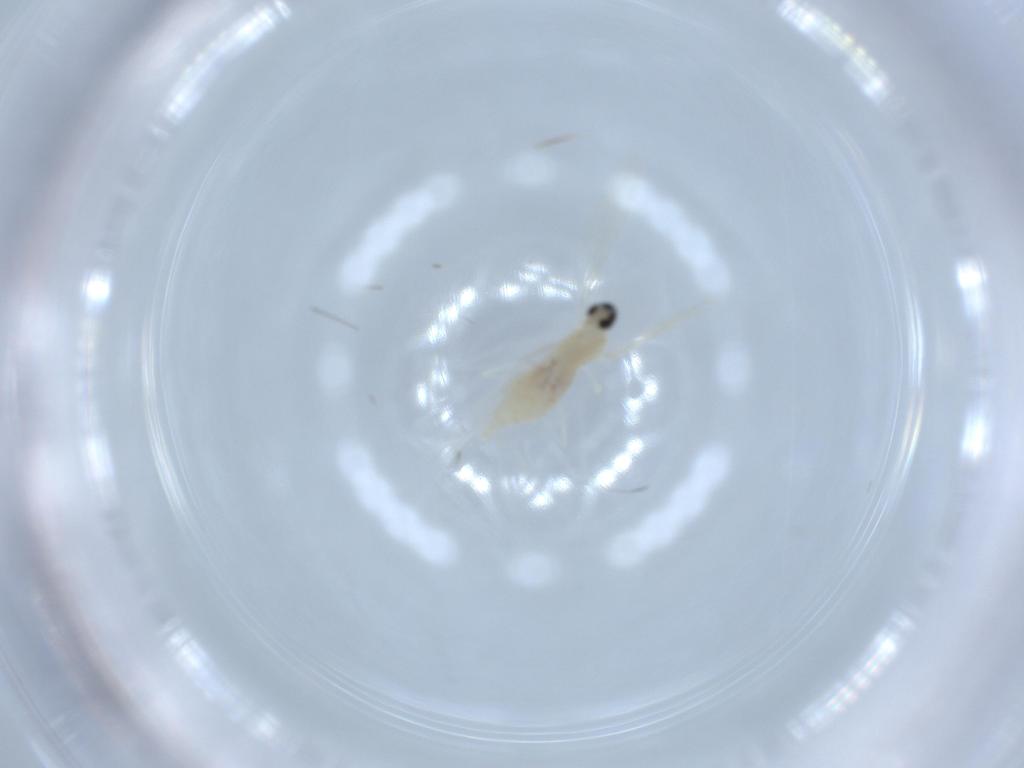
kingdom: Animalia
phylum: Arthropoda
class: Insecta
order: Diptera
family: Cecidomyiidae
